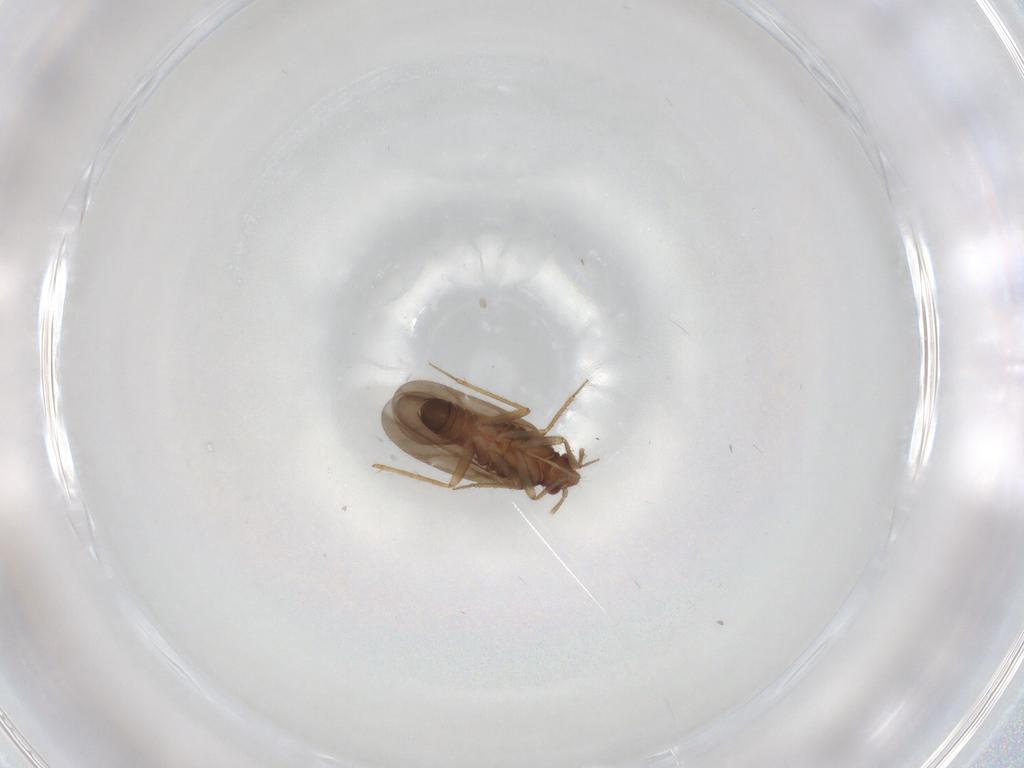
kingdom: Animalia
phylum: Arthropoda
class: Insecta
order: Hemiptera
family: Ceratocombidae
